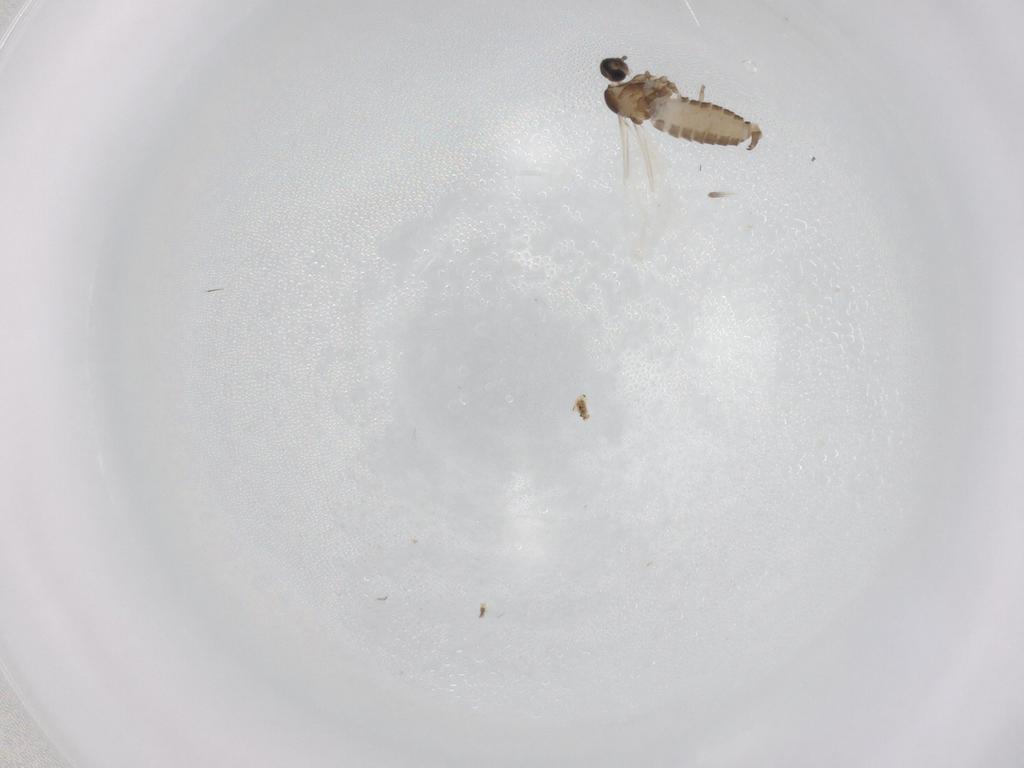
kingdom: Animalia
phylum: Arthropoda
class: Insecta
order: Diptera
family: Cecidomyiidae
